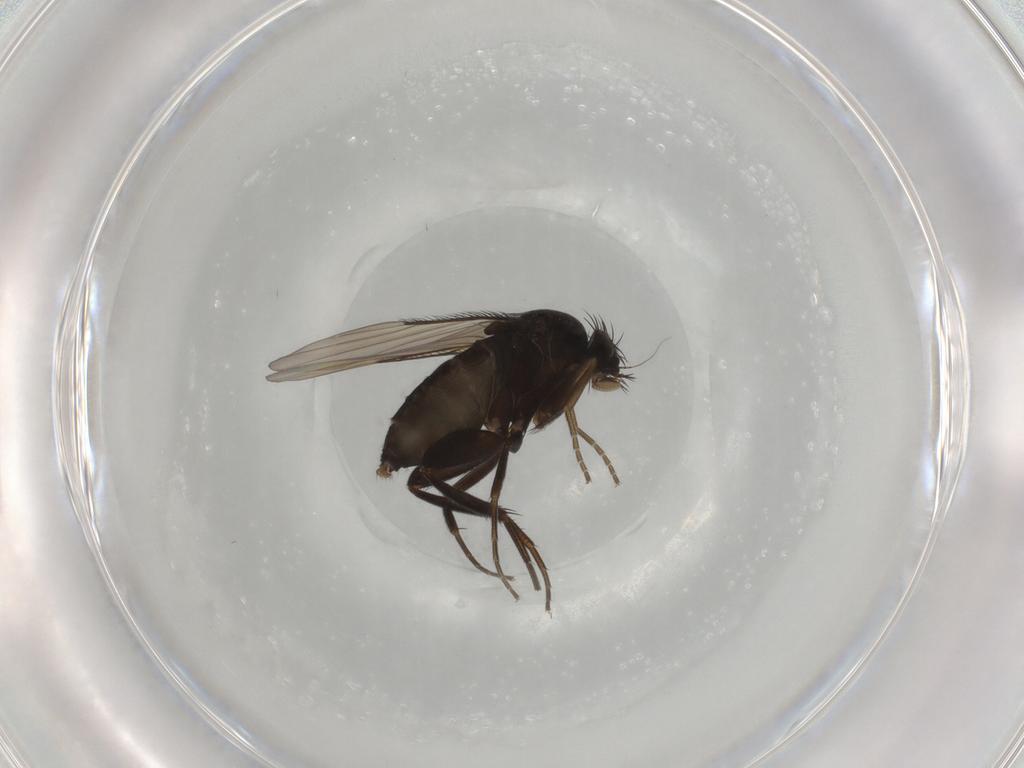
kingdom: Animalia
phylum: Arthropoda
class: Insecta
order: Diptera
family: Phoridae
